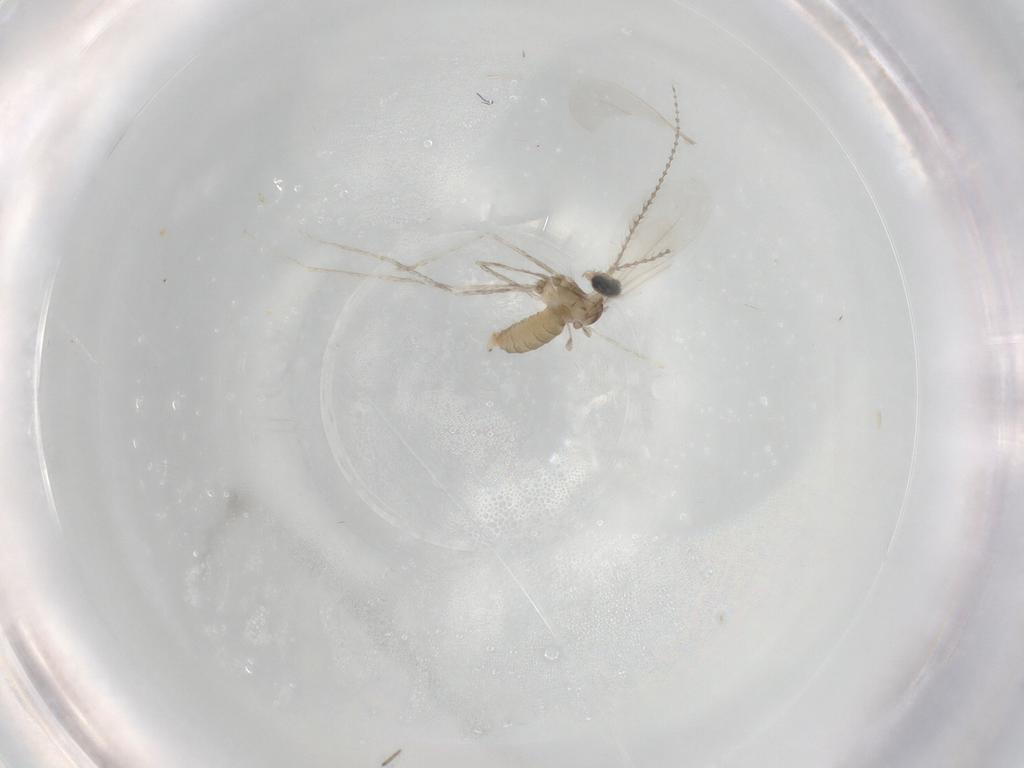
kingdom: Animalia
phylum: Arthropoda
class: Insecta
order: Diptera
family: Cecidomyiidae
